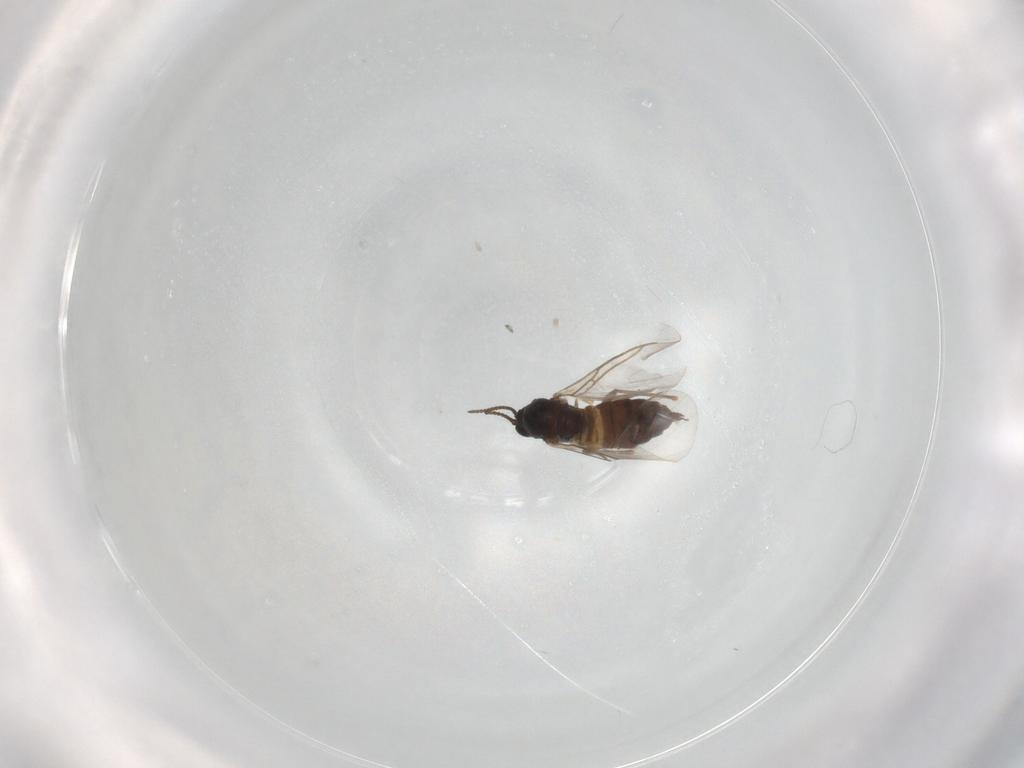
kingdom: Animalia
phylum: Arthropoda
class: Insecta
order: Diptera
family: Sciaridae
